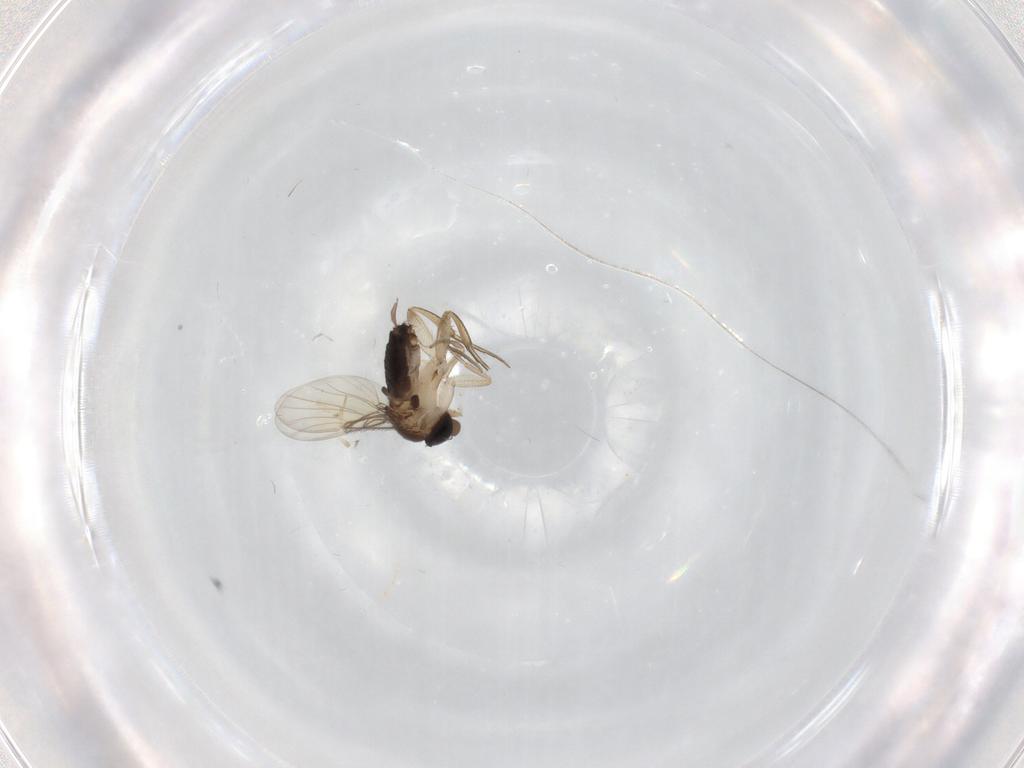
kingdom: Animalia
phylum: Arthropoda
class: Insecta
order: Diptera
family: Phoridae
